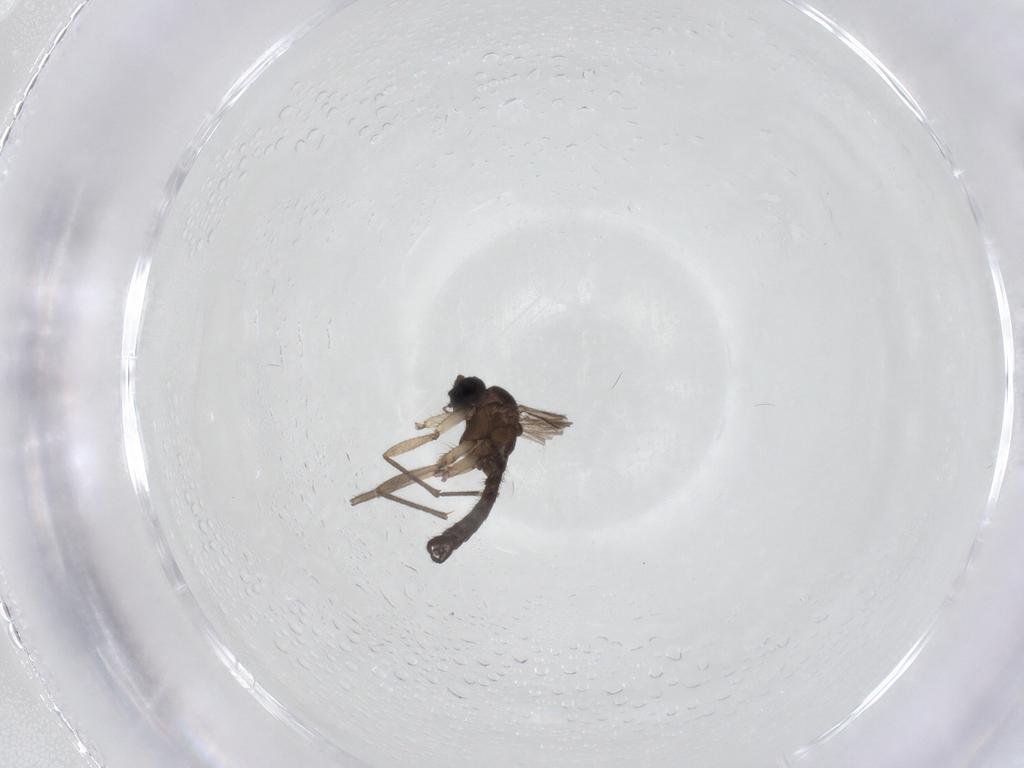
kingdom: Animalia
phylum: Arthropoda
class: Insecta
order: Diptera
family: Sciaridae
